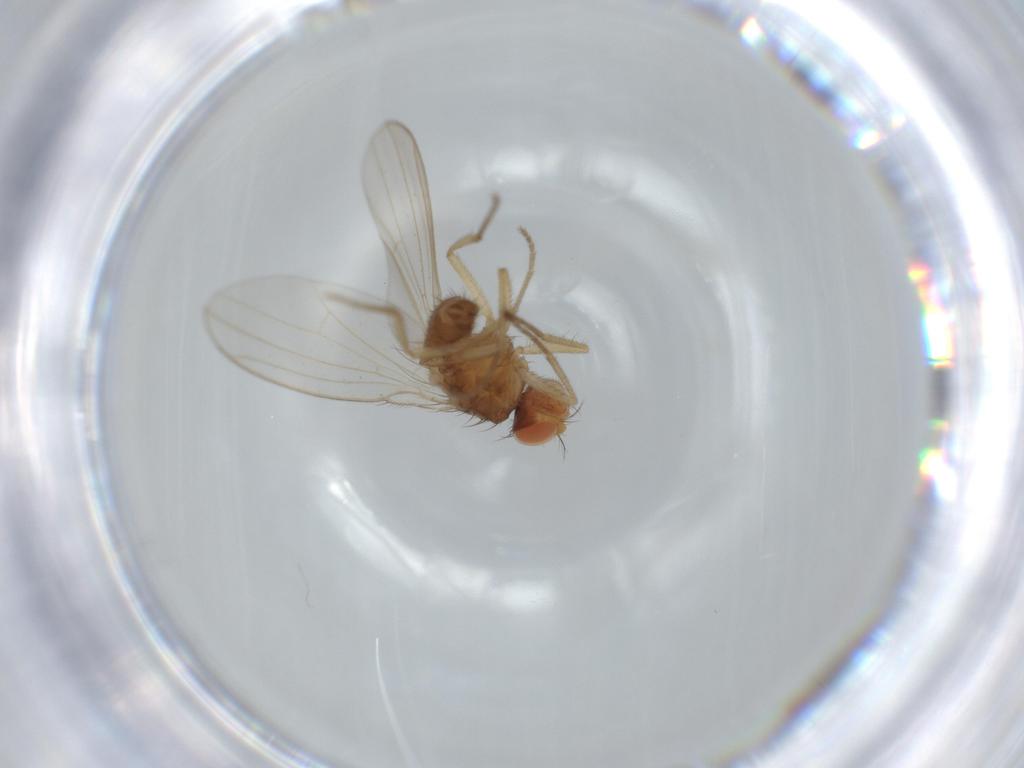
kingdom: Animalia
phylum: Arthropoda
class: Insecta
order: Diptera
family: Drosophilidae
